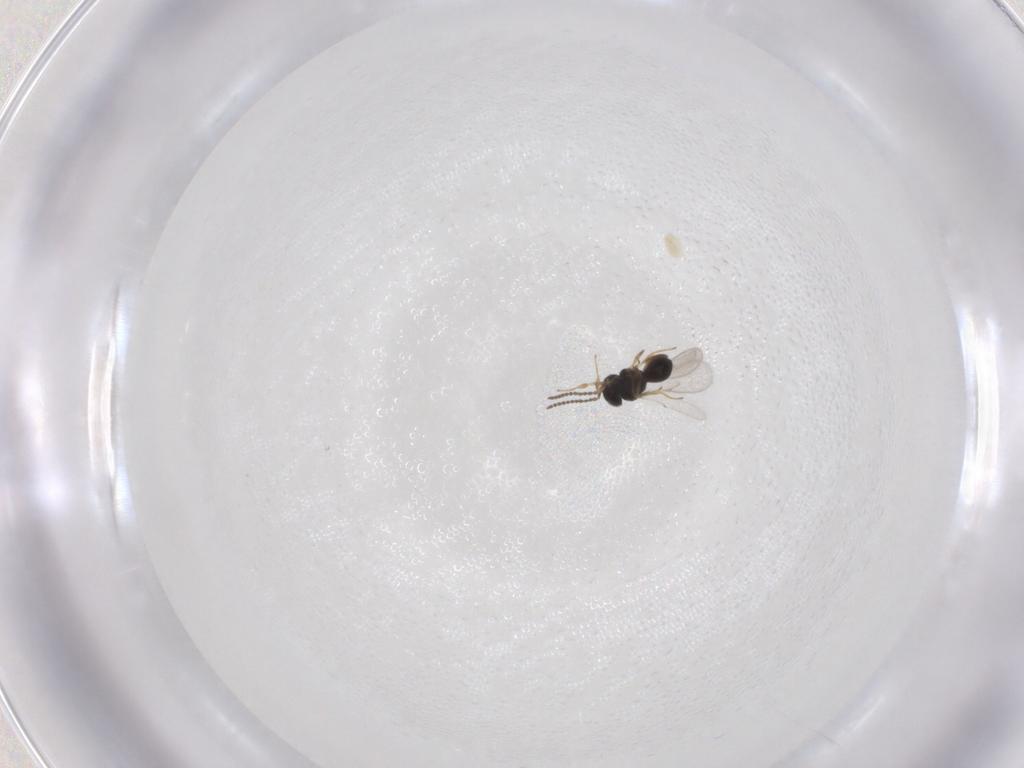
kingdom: Animalia
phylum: Arthropoda
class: Insecta
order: Hymenoptera
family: Scelionidae
